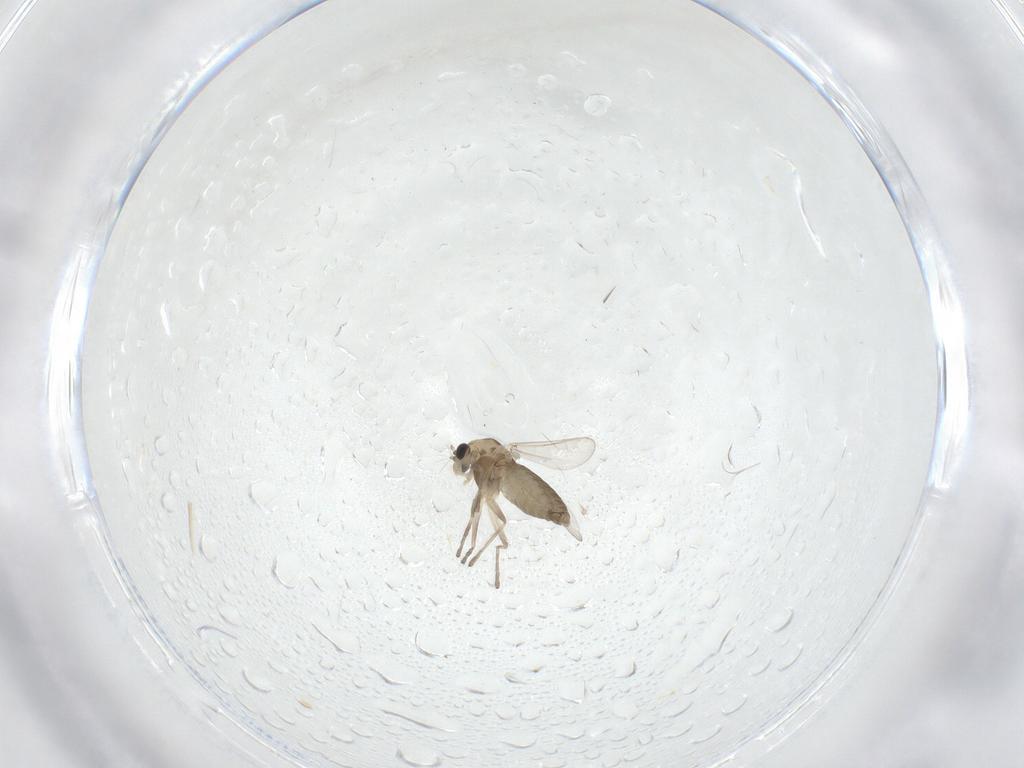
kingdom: Animalia
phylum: Arthropoda
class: Insecta
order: Diptera
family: Chironomidae
